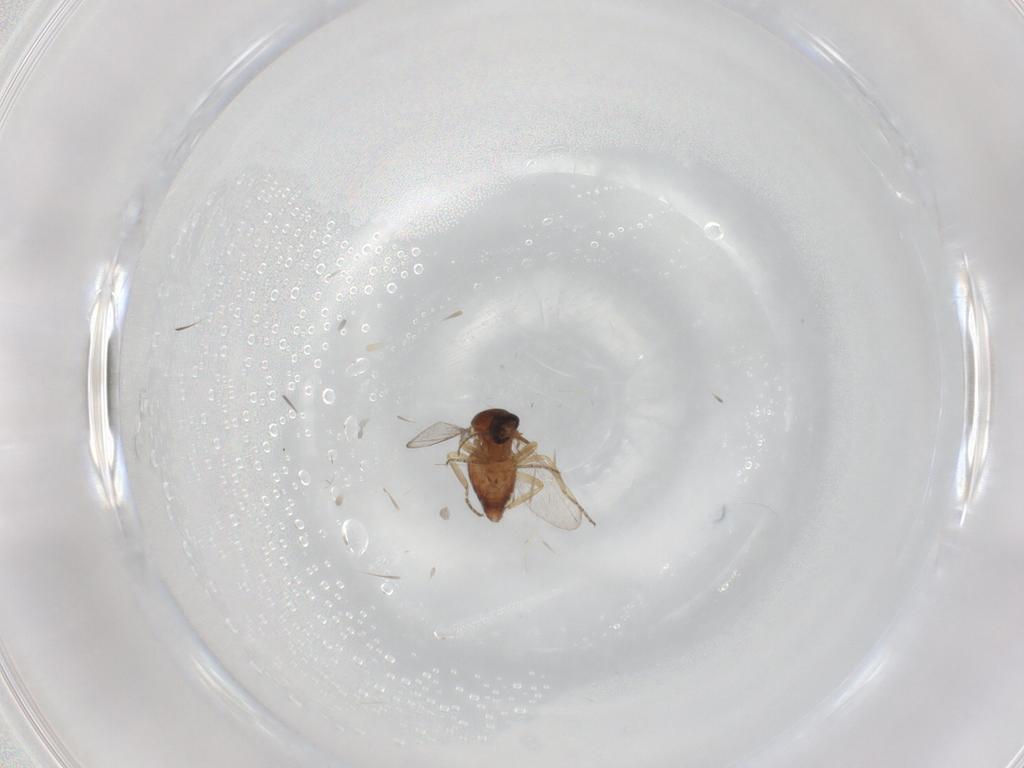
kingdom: Animalia
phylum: Arthropoda
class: Insecta
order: Diptera
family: Ceratopogonidae
